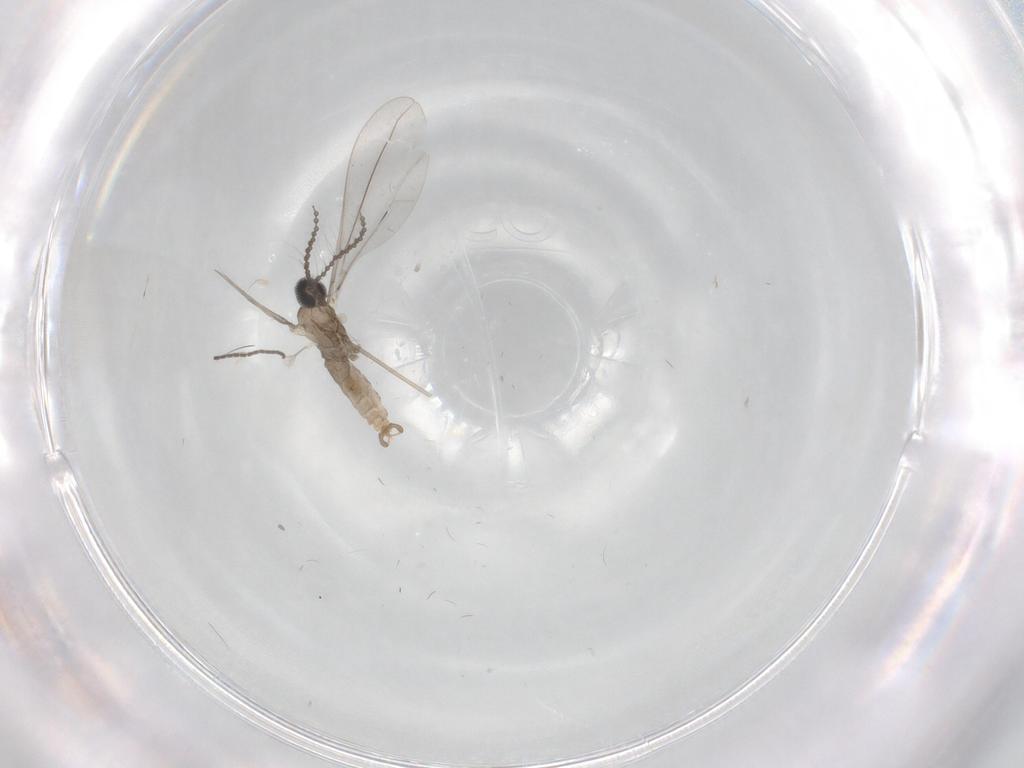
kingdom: Animalia
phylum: Arthropoda
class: Insecta
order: Diptera
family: Cecidomyiidae
